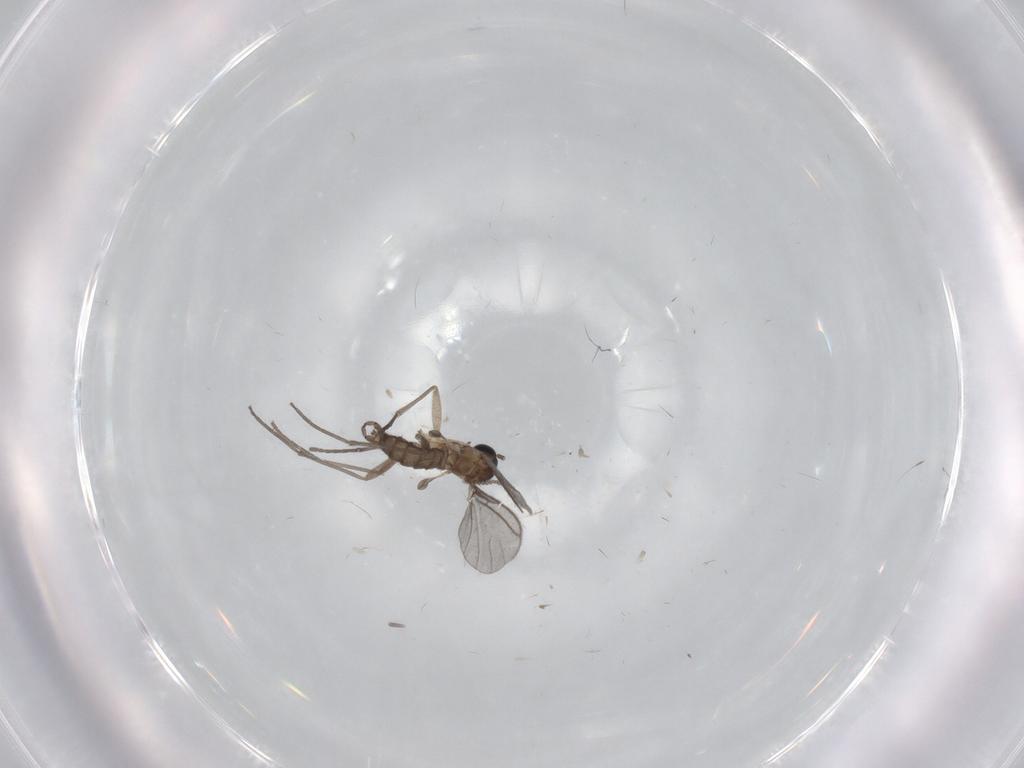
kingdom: Animalia
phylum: Arthropoda
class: Insecta
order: Diptera
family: Sciaridae
